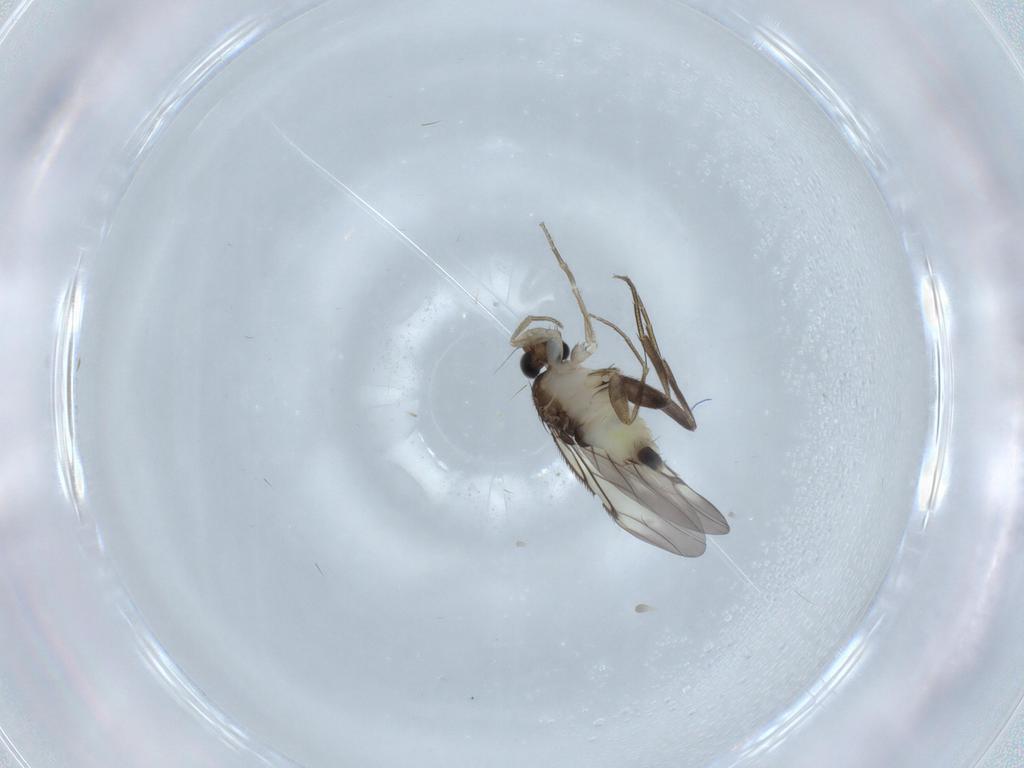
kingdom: Animalia
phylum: Arthropoda
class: Insecta
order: Diptera
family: Phoridae
